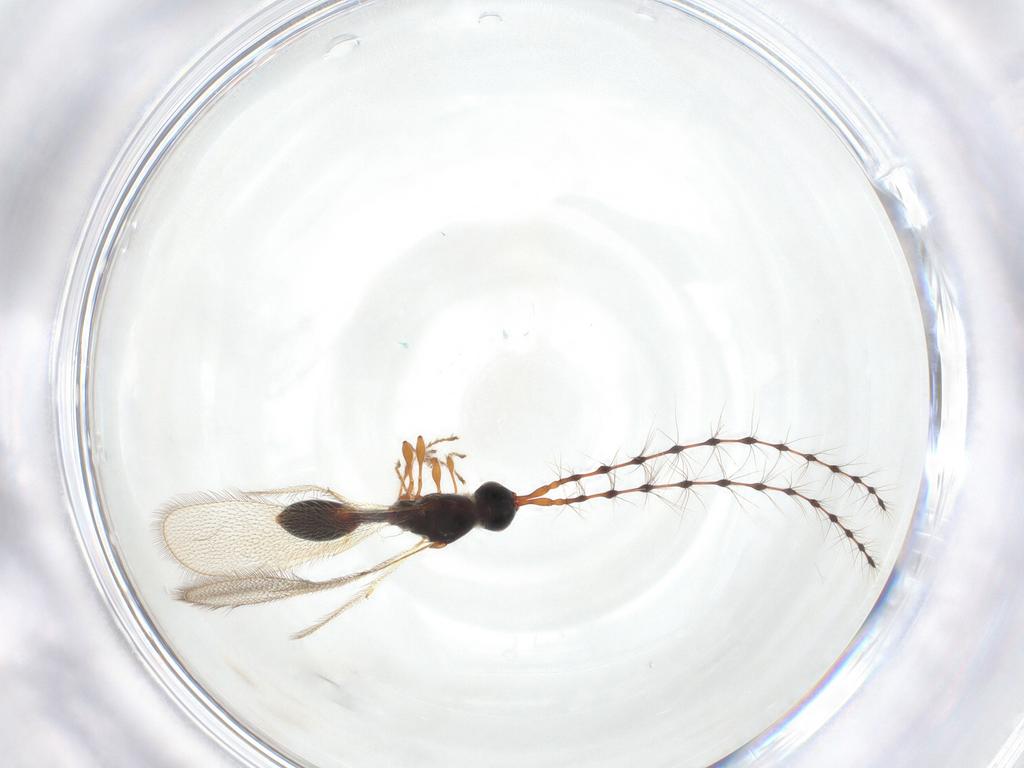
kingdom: Animalia
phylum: Arthropoda
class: Insecta
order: Hymenoptera
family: Diapriidae
